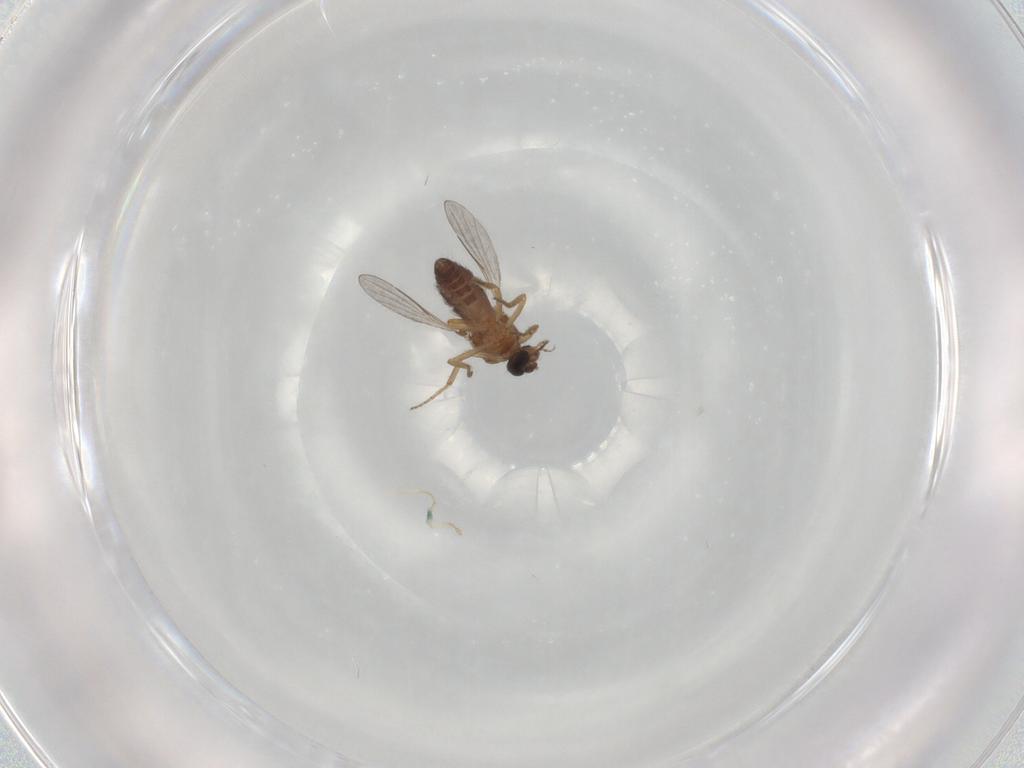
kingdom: Animalia
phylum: Arthropoda
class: Insecta
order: Diptera
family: Ceratopogonidae
